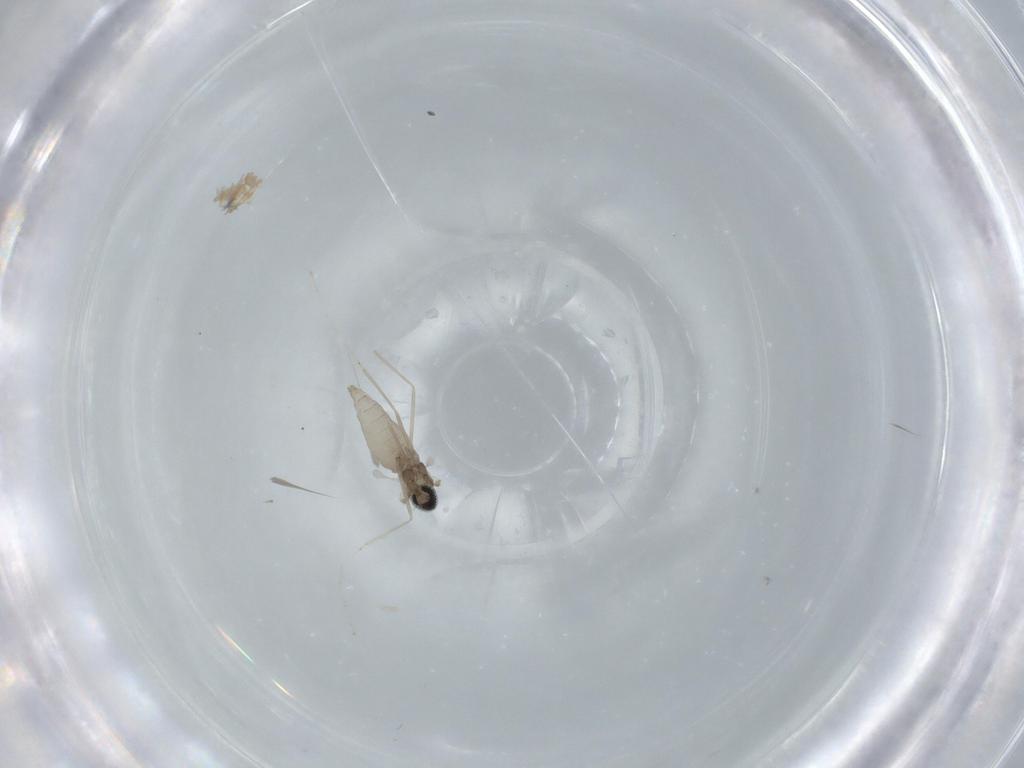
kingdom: Animalia
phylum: Arthropoda
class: Insecta
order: Diptera
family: Cecidomyiidae
